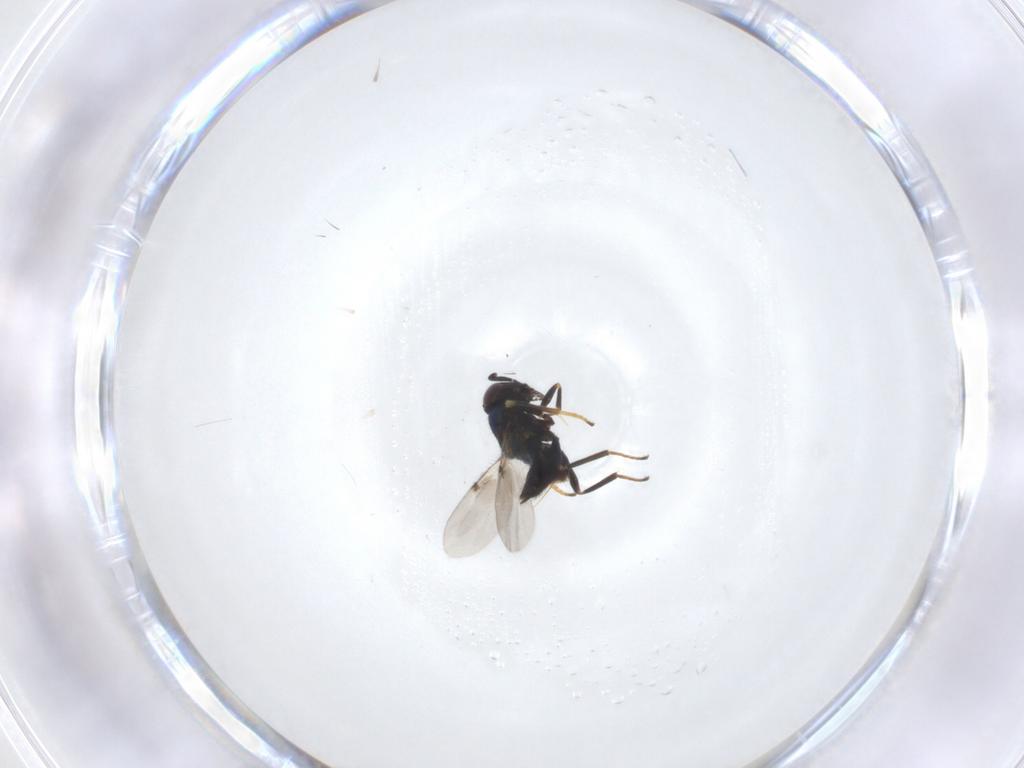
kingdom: Animalia
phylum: Arthropoda
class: Insecta
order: Hymenoptera
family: Encyrtidae
